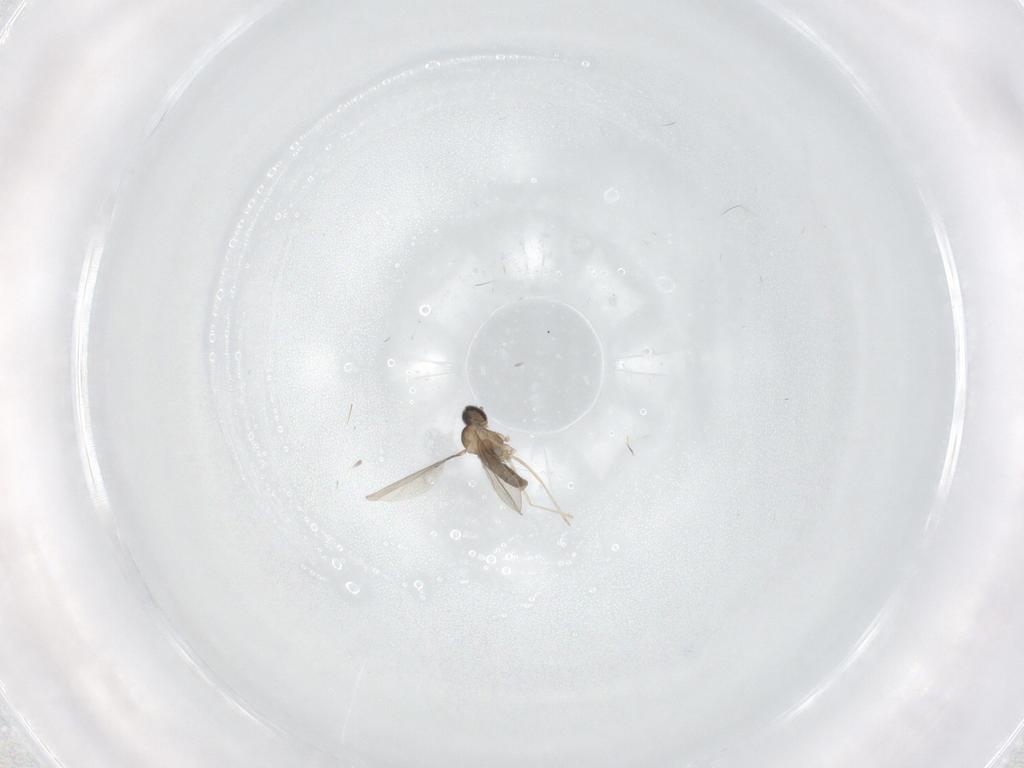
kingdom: Animalia
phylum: Arthropoda
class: Insecta
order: Diptera
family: Cecidomyiidae
